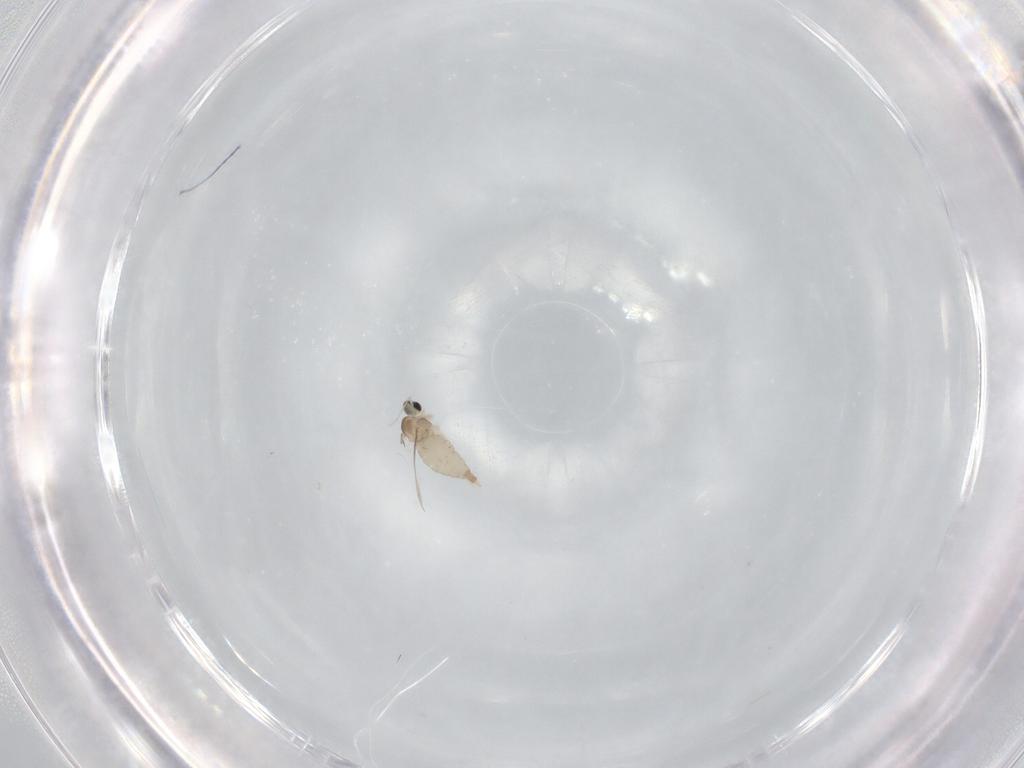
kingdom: Animalia
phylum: Arthropoda
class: Insecta
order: Diptera
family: Cecidomyiidae
